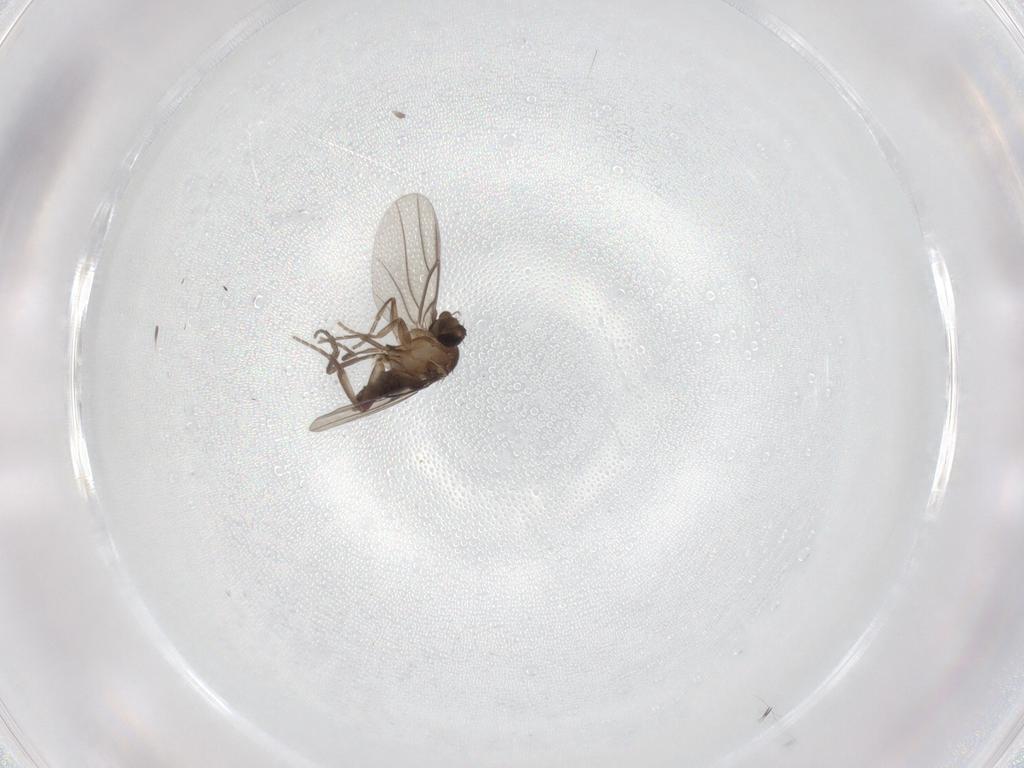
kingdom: Animalia
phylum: Arthropoda
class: Insecta
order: Diptera
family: Phoridae
